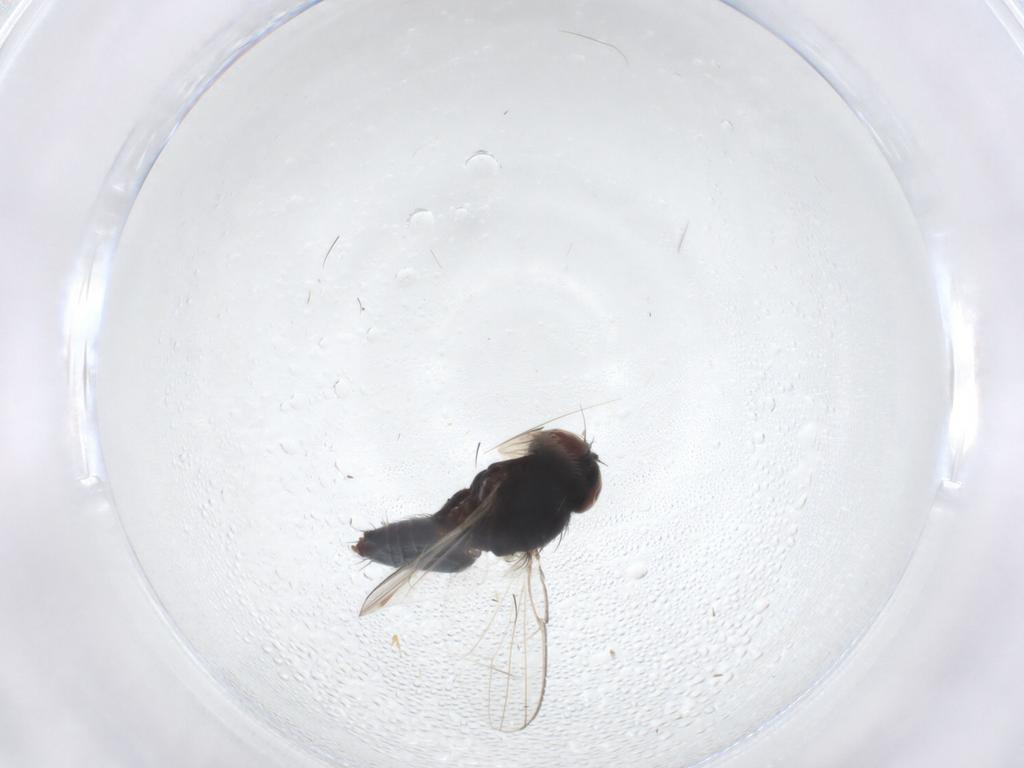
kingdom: Animalia
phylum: Arthropoda
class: Insecta
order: Diptera
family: Milichiidae
